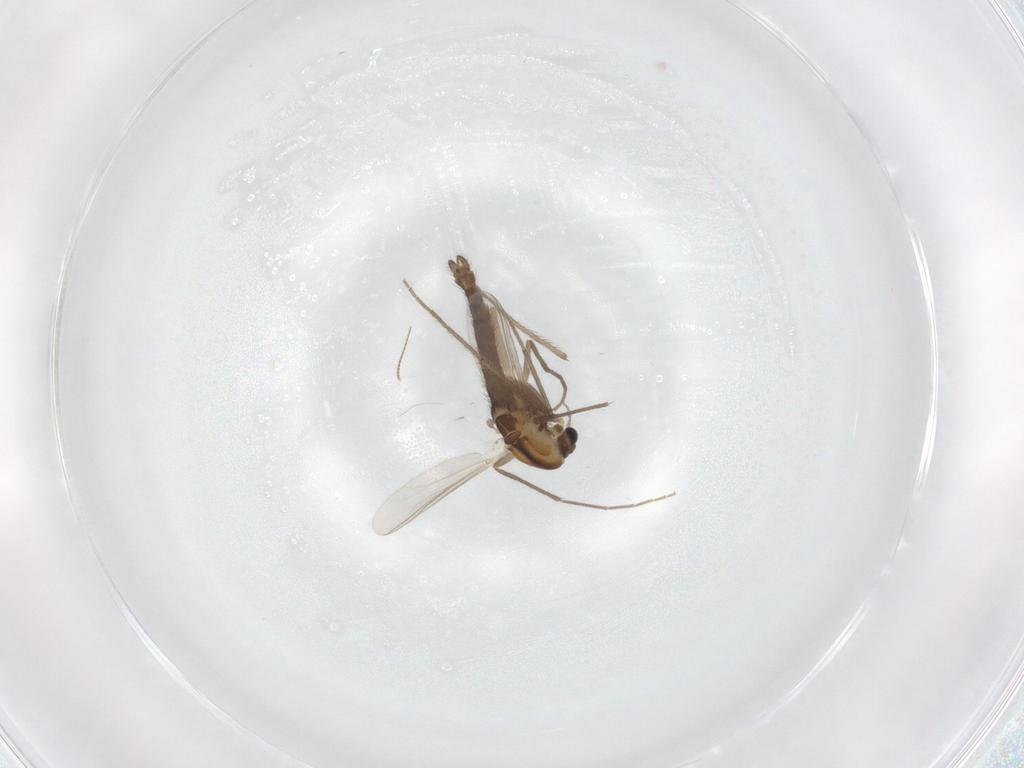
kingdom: Animalia
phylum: Arthropoda
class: Insecta
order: Diptera
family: Chironomidae
